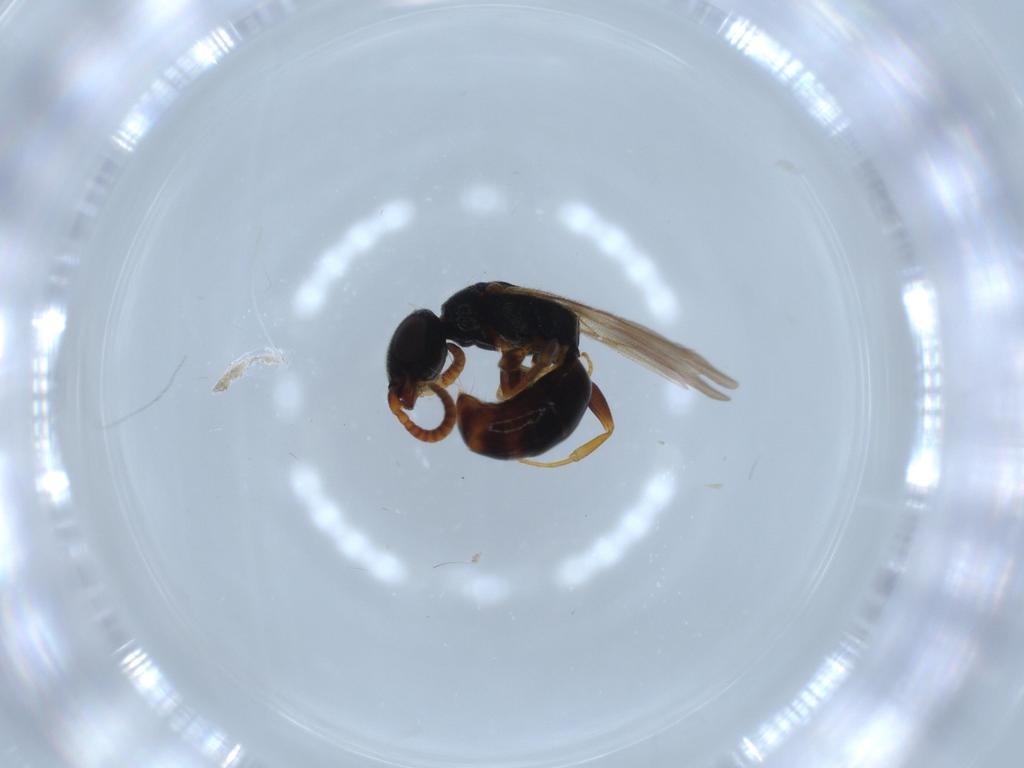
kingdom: Animalia
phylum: Arthropoda
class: Insecta
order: Hymenoptera
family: Bethylidae
